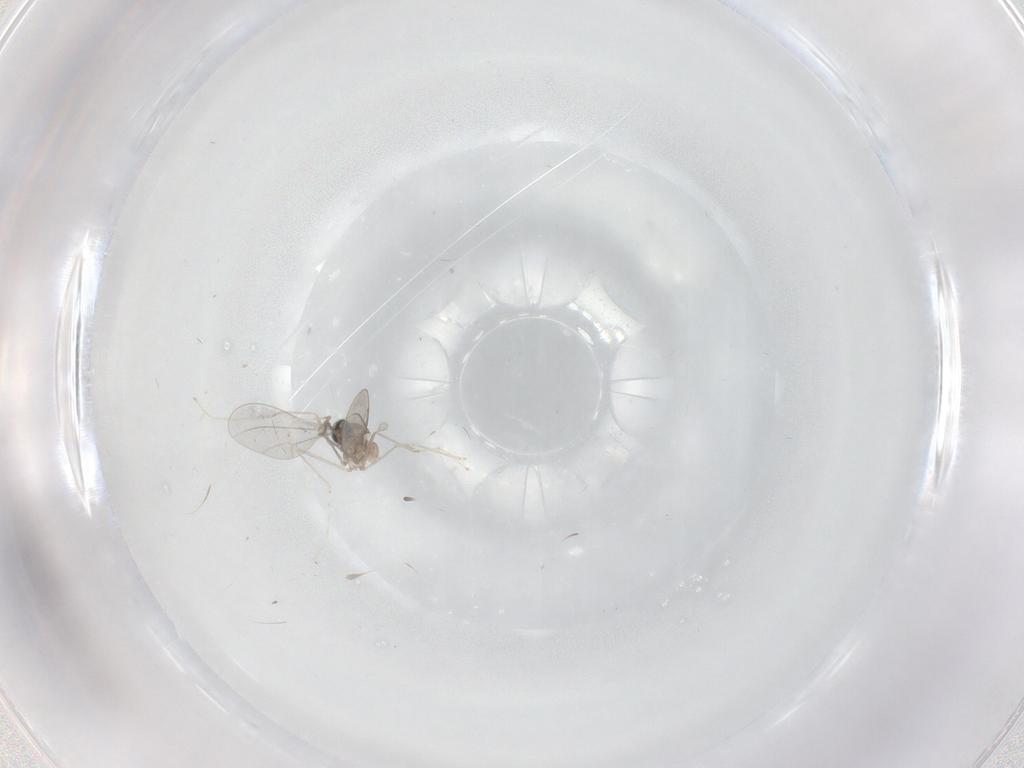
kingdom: Animalia
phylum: Arthropoda
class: Insecta
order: Diptera
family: Cecidomyiidae
